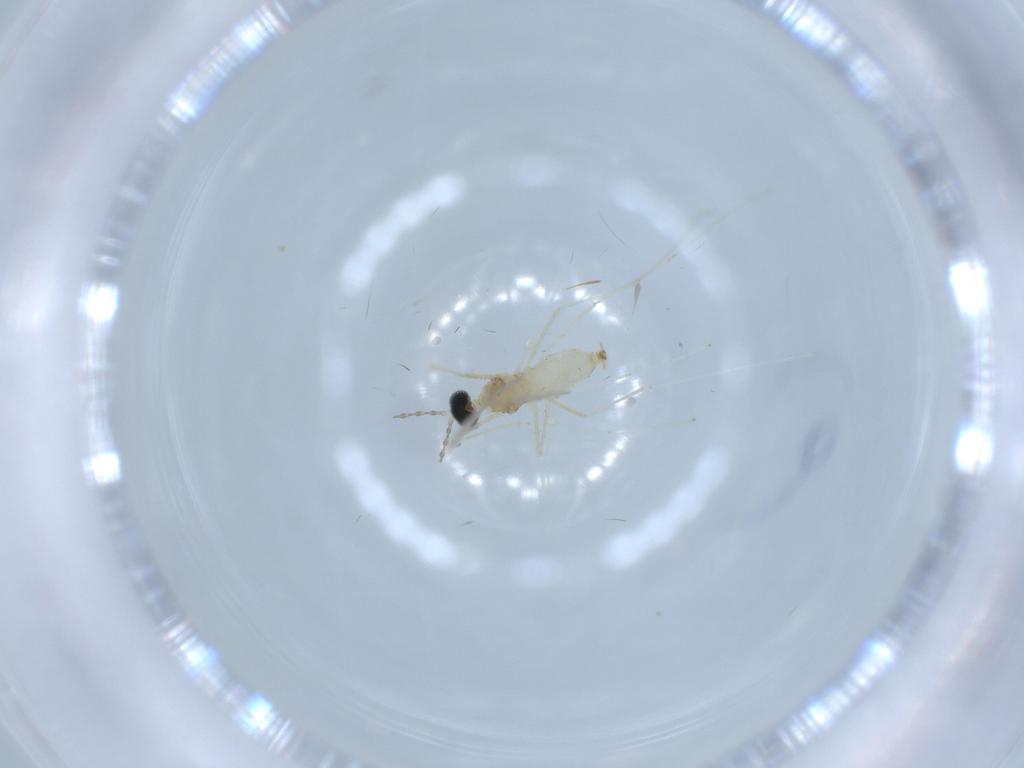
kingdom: Animalia
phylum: Arthropoda
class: Insecta
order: Diptera
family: Cecidomyiidae
